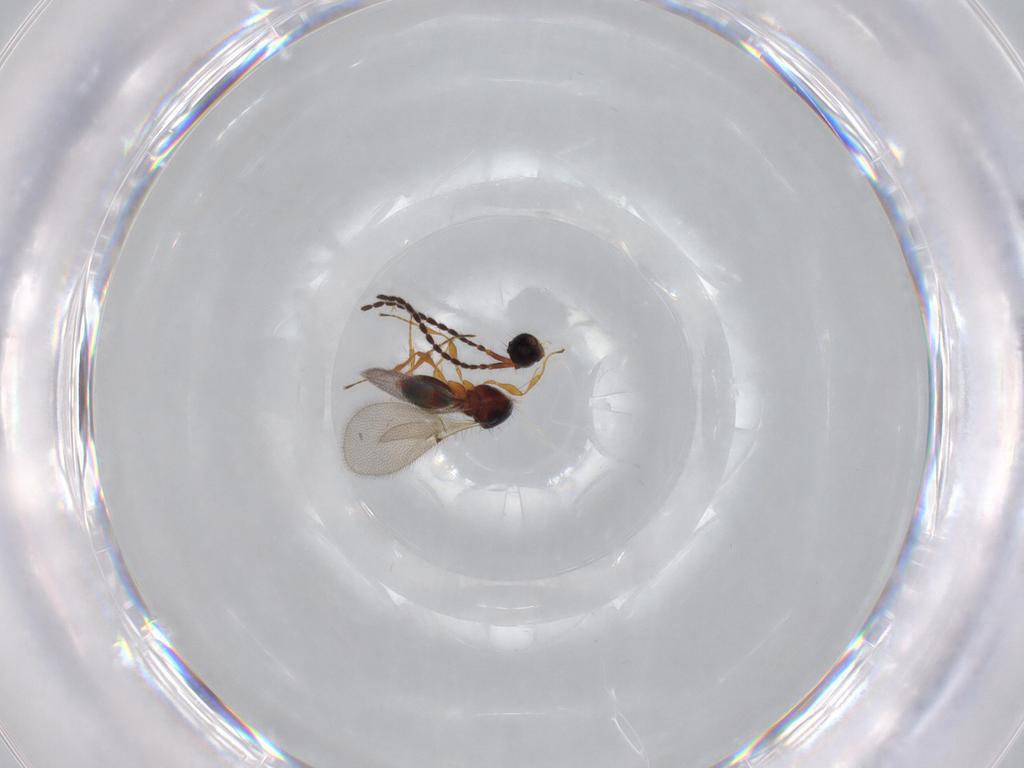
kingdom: Animalia
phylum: Arthropoda
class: Insecta
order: Hymenoptera
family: Diapriidae
